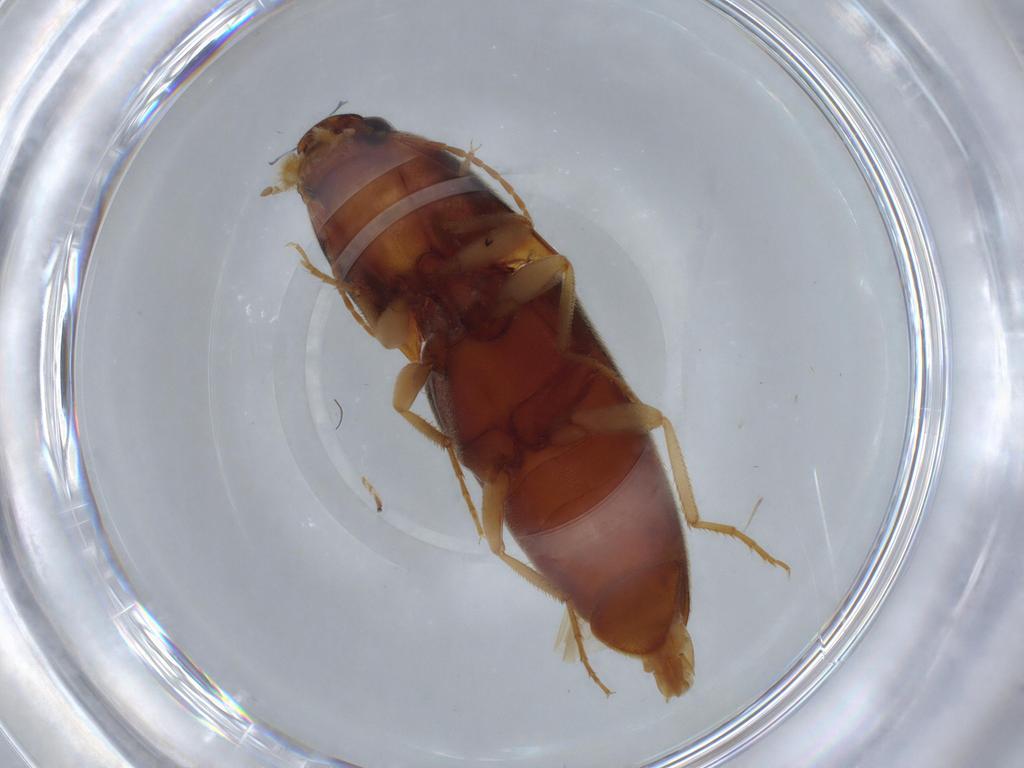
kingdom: Animalia
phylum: Arthropoda
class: Insecta
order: Coleoptera
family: Elateridae
